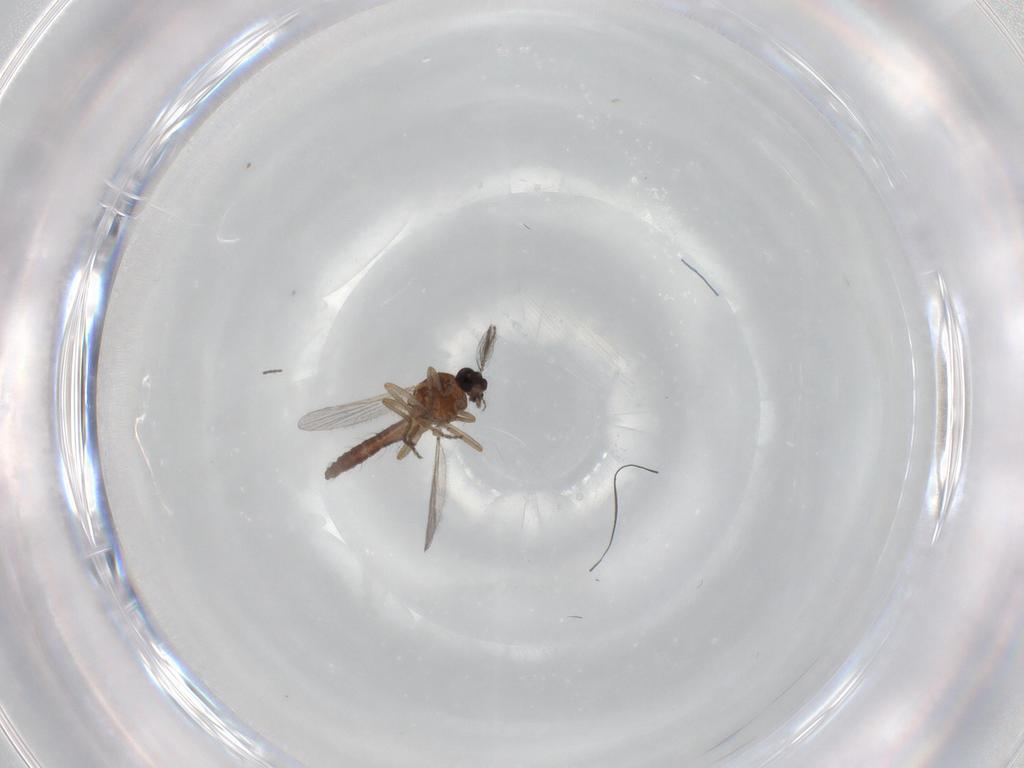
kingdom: Animalia
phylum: Arthropoda
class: Insecta
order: Diptera
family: Ceratopogonidae
